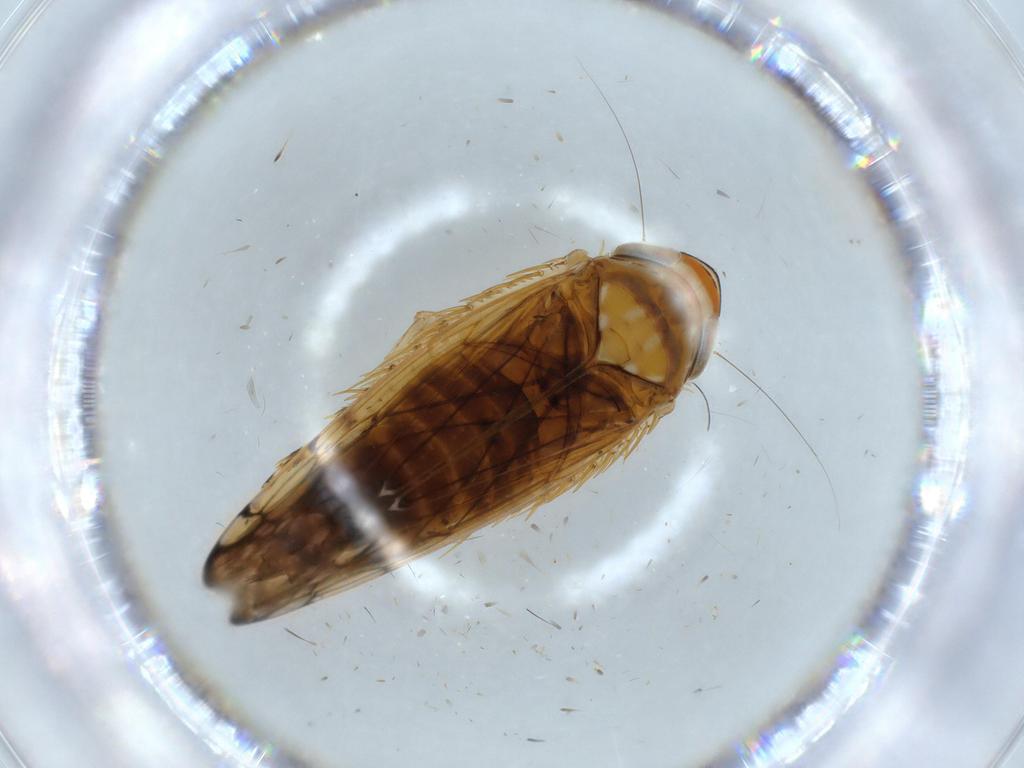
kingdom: Animalia
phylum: Arthropoda
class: Insecta
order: Hemiptera
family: Cicadellidae
